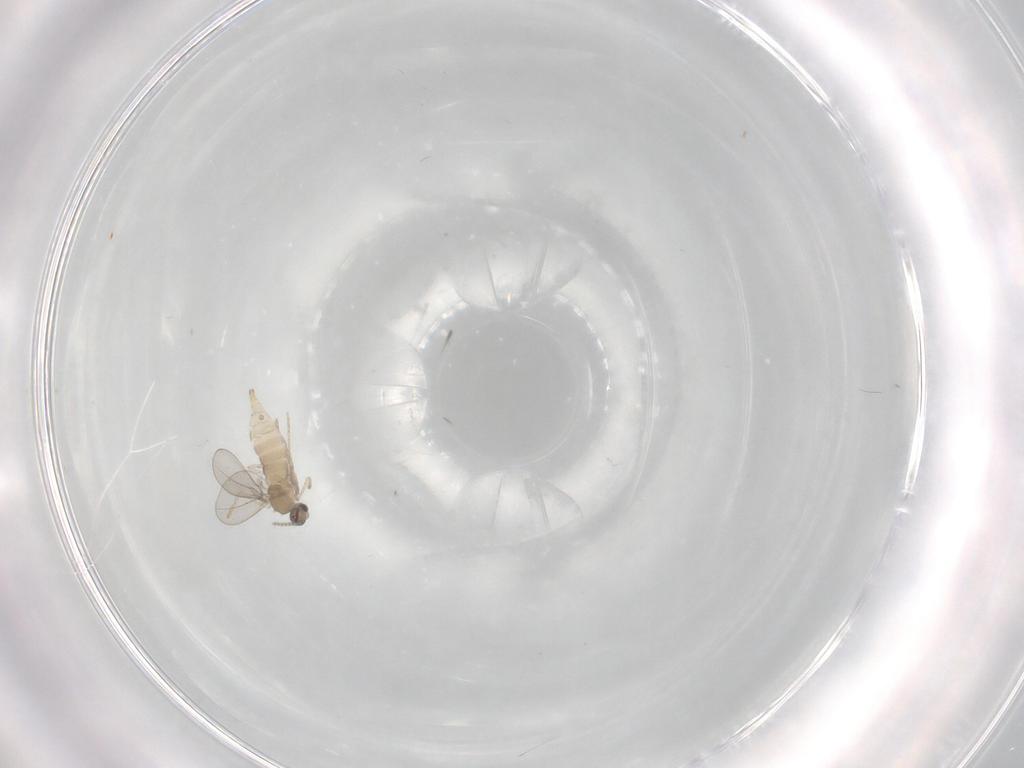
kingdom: Animalia
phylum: Arthropoda
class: Insecta
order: Diptera
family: Cecidomyiidae
